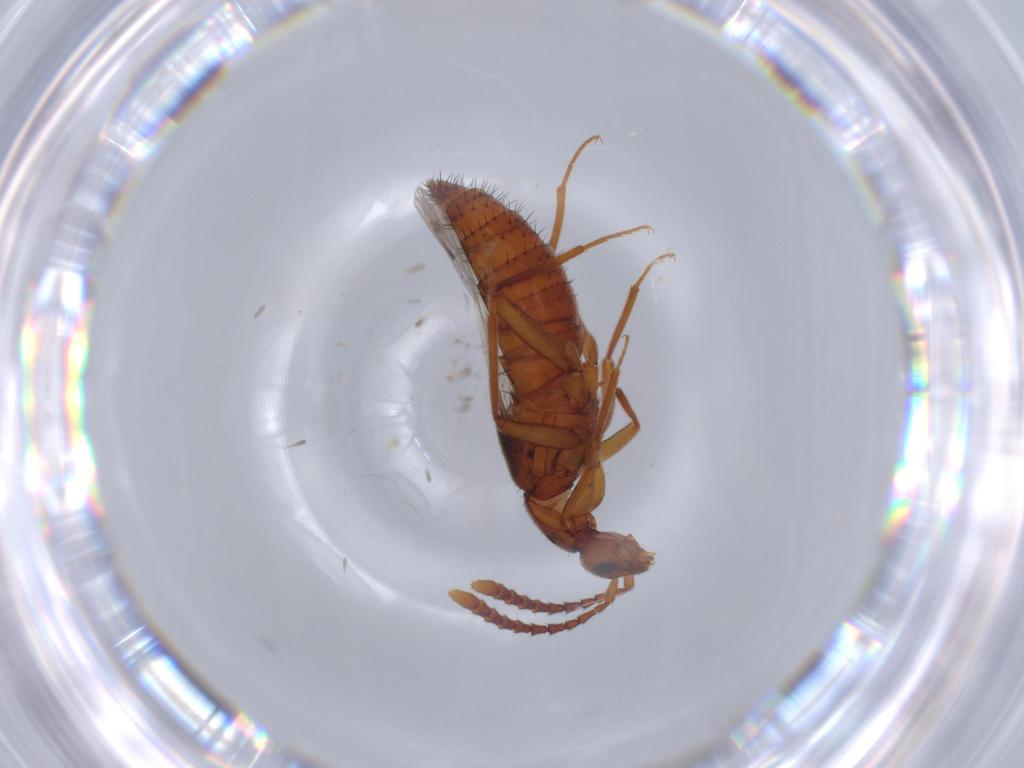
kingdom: Animalia
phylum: Arthropoda
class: Insecta
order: Coleoptera
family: Staphylinidae
